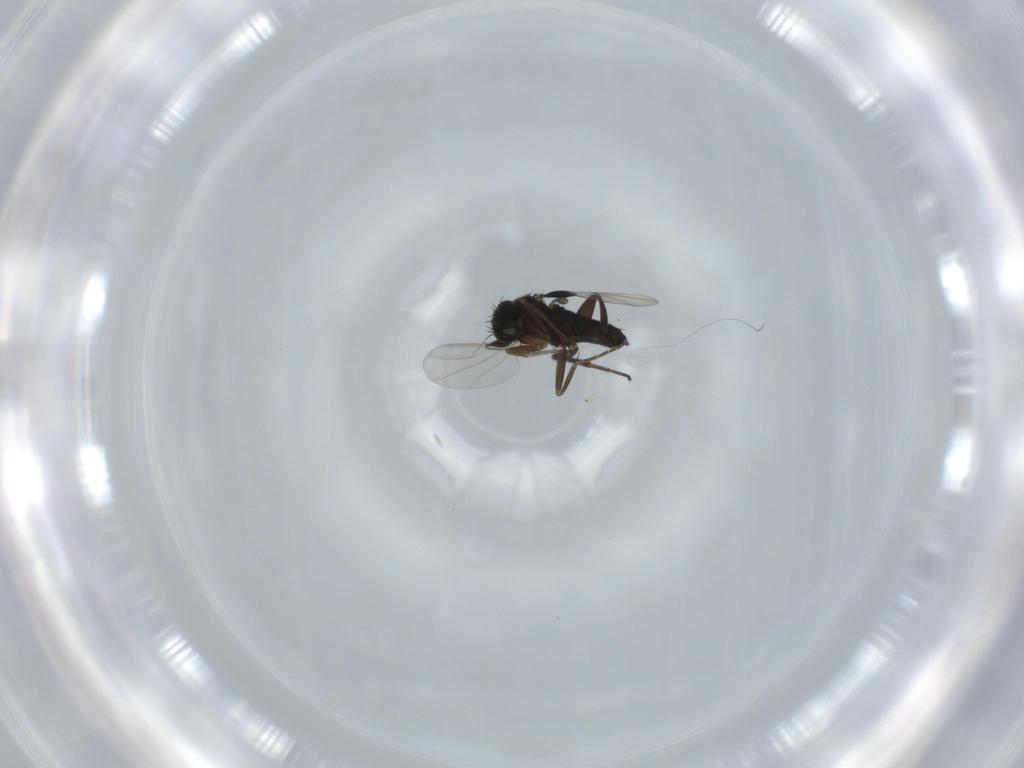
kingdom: Animalia
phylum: Arthropoda
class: Insecta
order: Diptera
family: Phoridae
